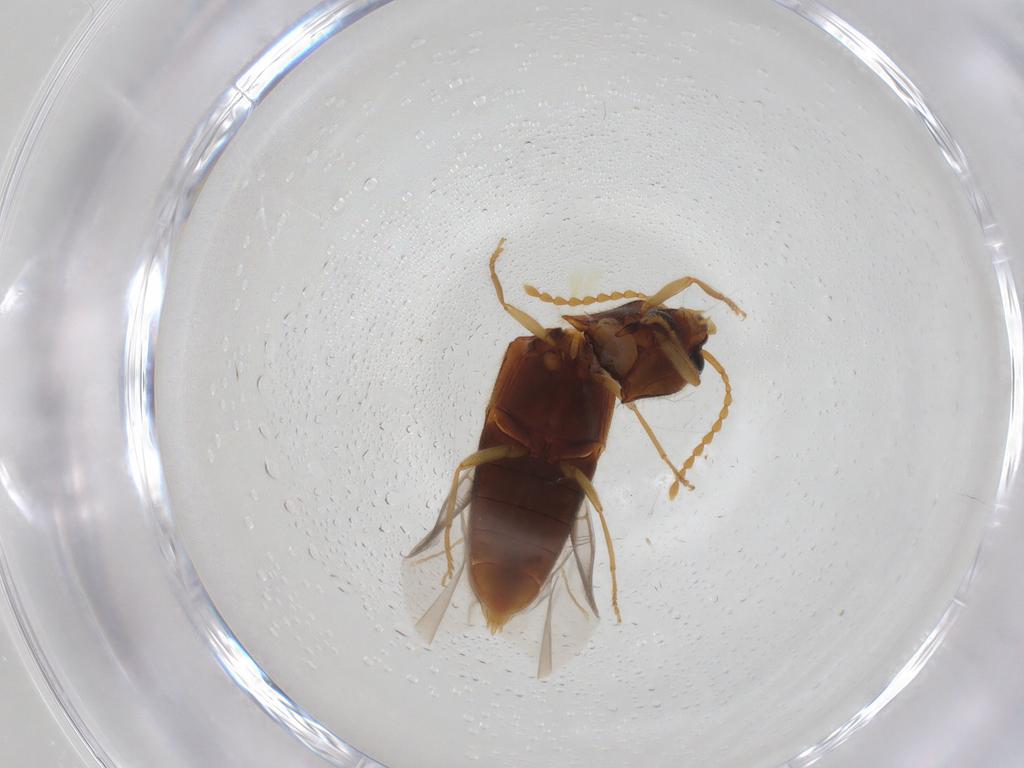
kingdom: Animalia
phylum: Arthropoda
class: Insecta
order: Coleoptera
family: Elateridae
